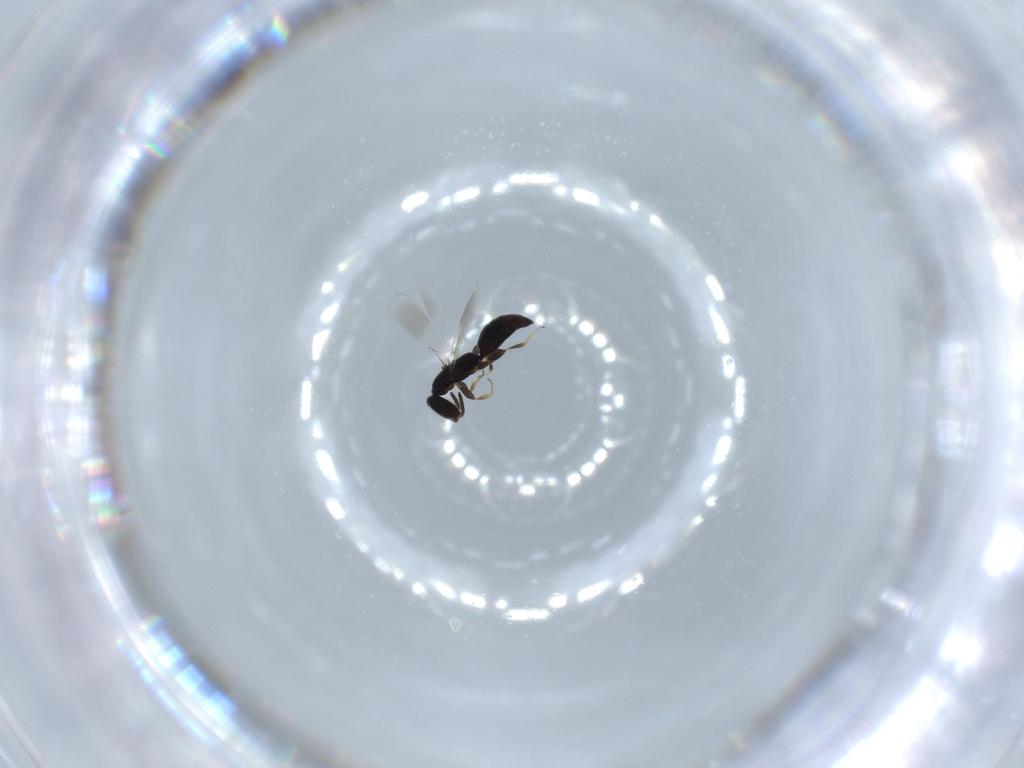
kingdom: Animalia
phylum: Arthropoda
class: Insecta
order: Hymenoptera
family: Bethylidae
